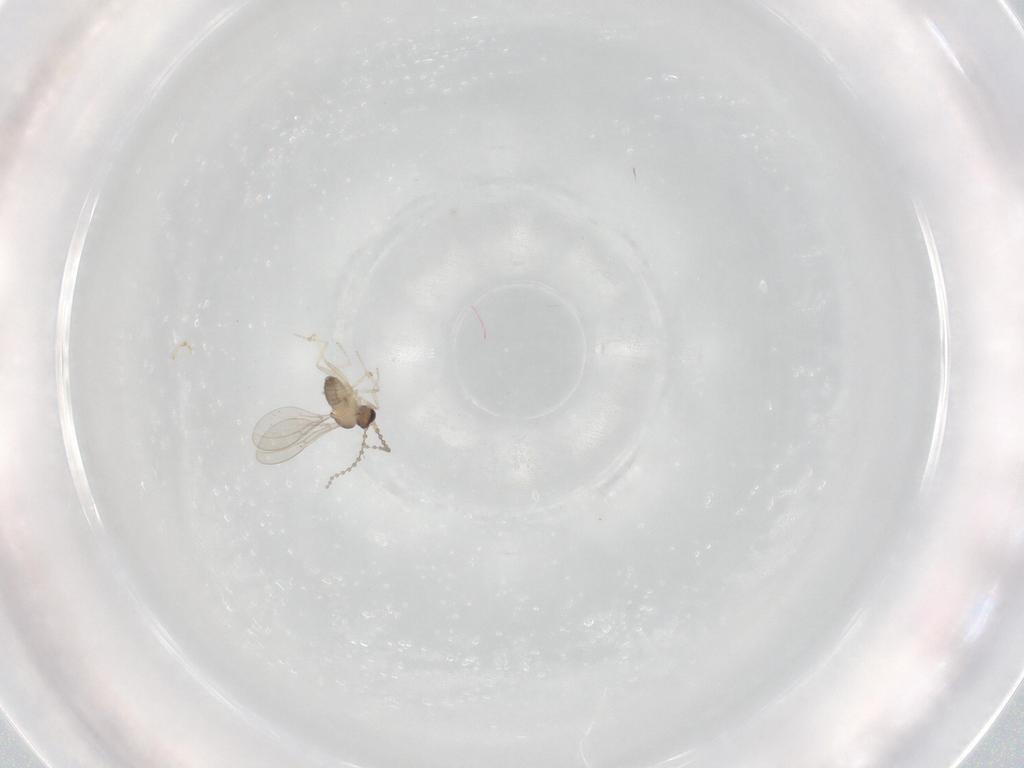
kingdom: Animalia
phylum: Arthropoda
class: Insecta
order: Diptera
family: Cecidomyiidae
